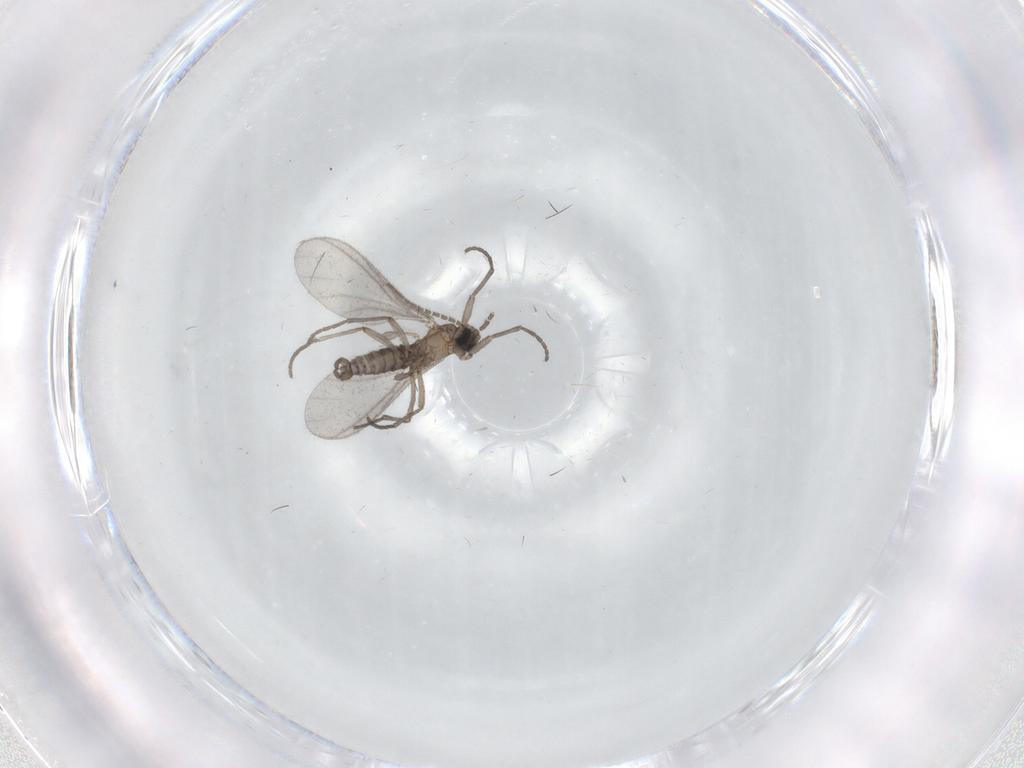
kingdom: Animalia
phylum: Arthropoda
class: Insecta
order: Diptera
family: Sciaridae
